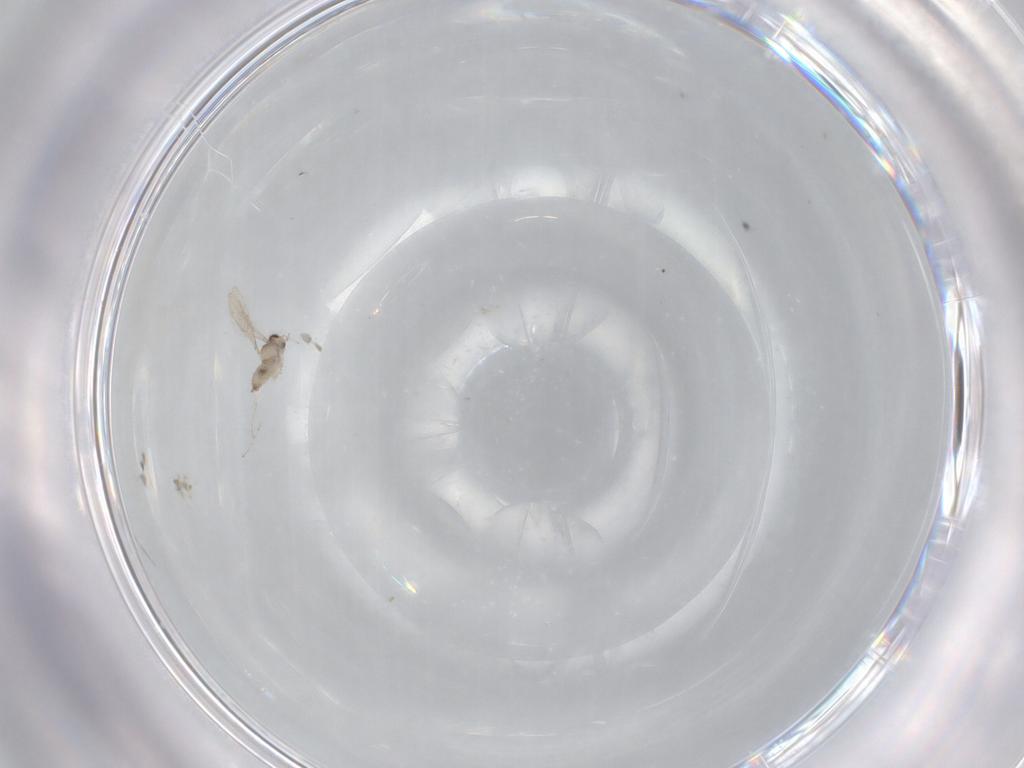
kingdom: Animalia
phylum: Arthropoda
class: Insecta
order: Diptera
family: Cecidomyiidae
